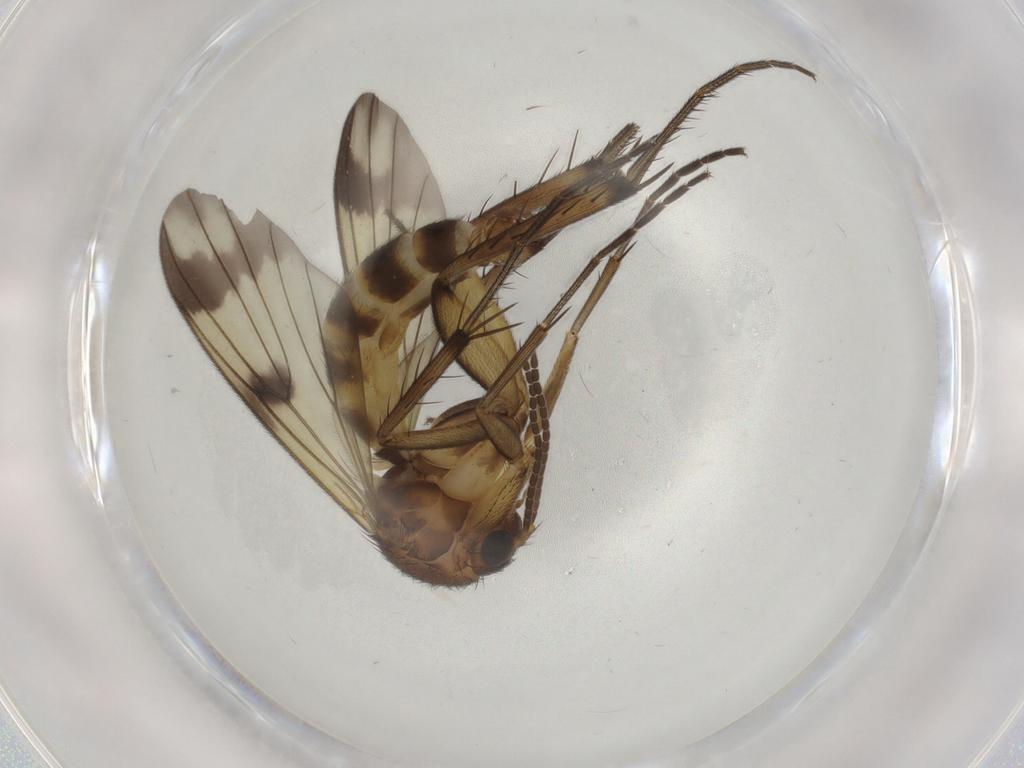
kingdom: Animalia
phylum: Arthropoda
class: Insecta
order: Diptera
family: Mycetophilidae
